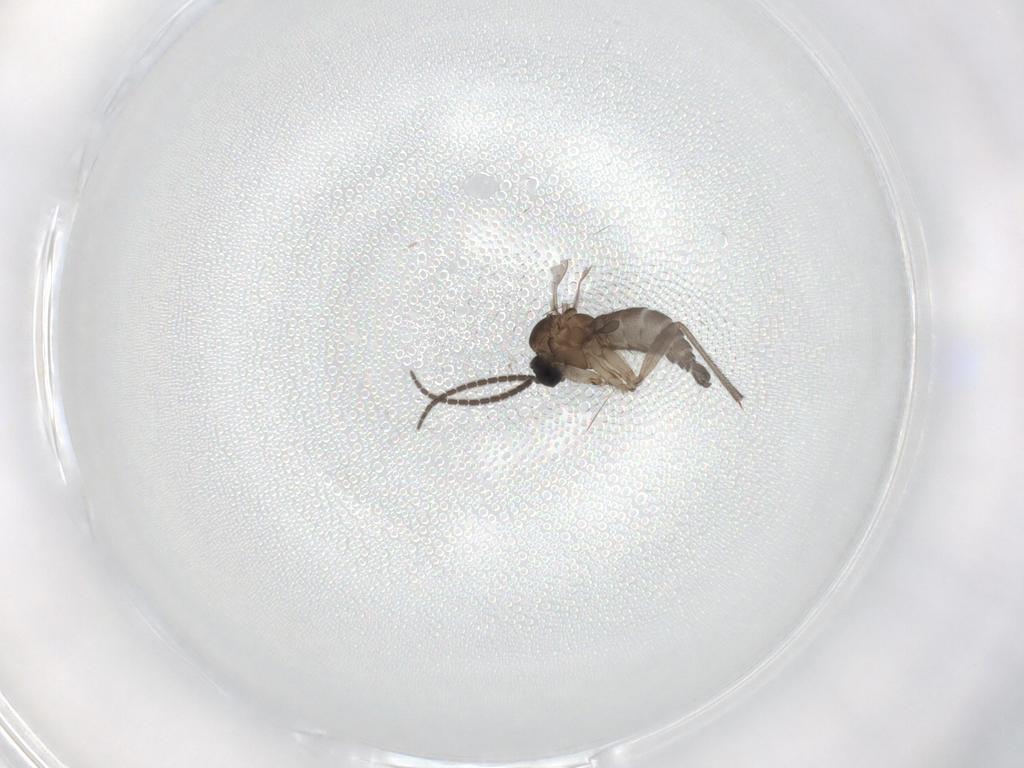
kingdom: Animalia
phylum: Arthropoda
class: Insecta
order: Diptera
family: Sciaridae
